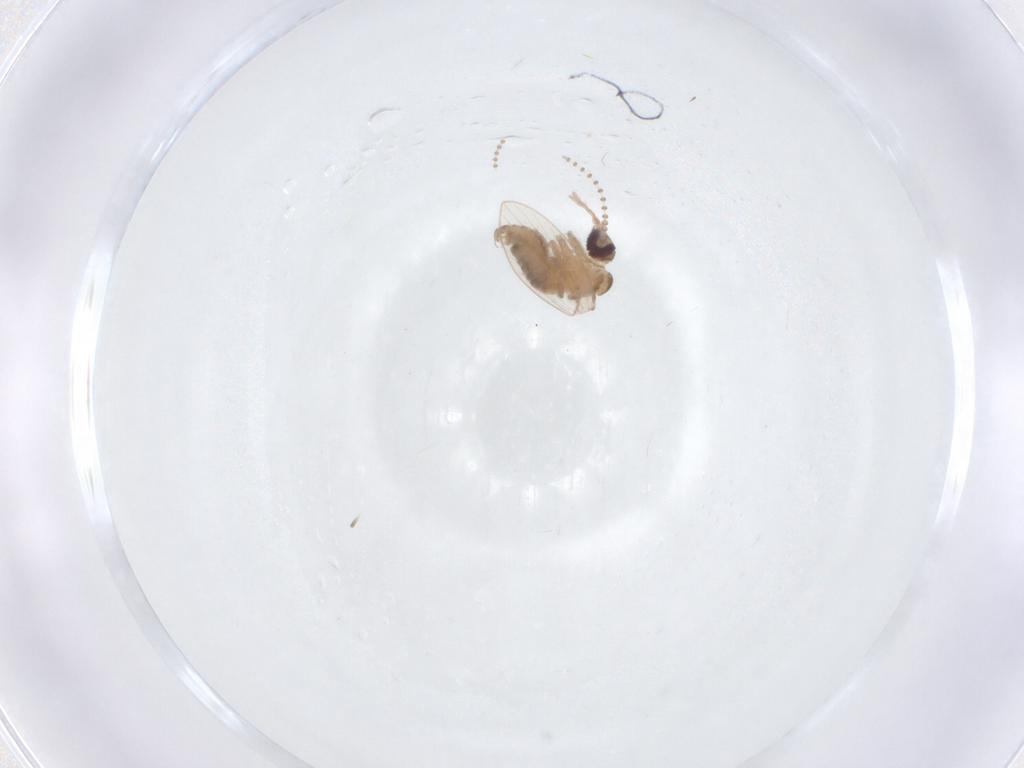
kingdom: Animalia
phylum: Arthropoda
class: Insecta
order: Diptera
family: Psychodidae
